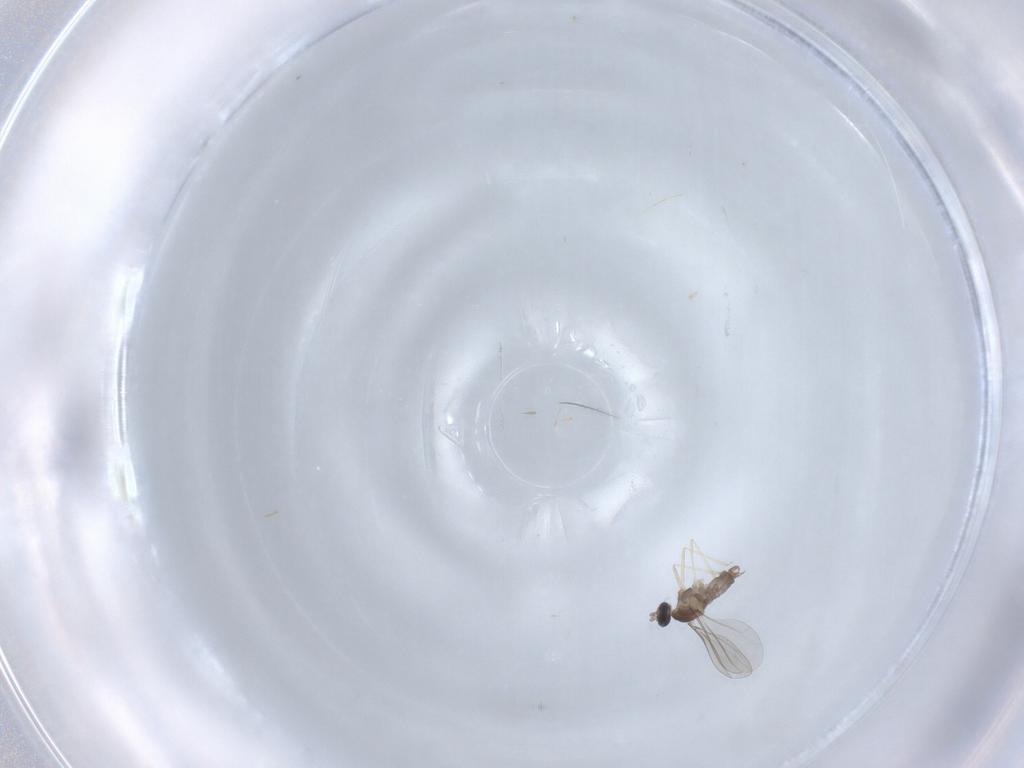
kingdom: Animalia
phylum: Arthropoda
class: Insecta
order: Diptera
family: Cecidomyiidae
